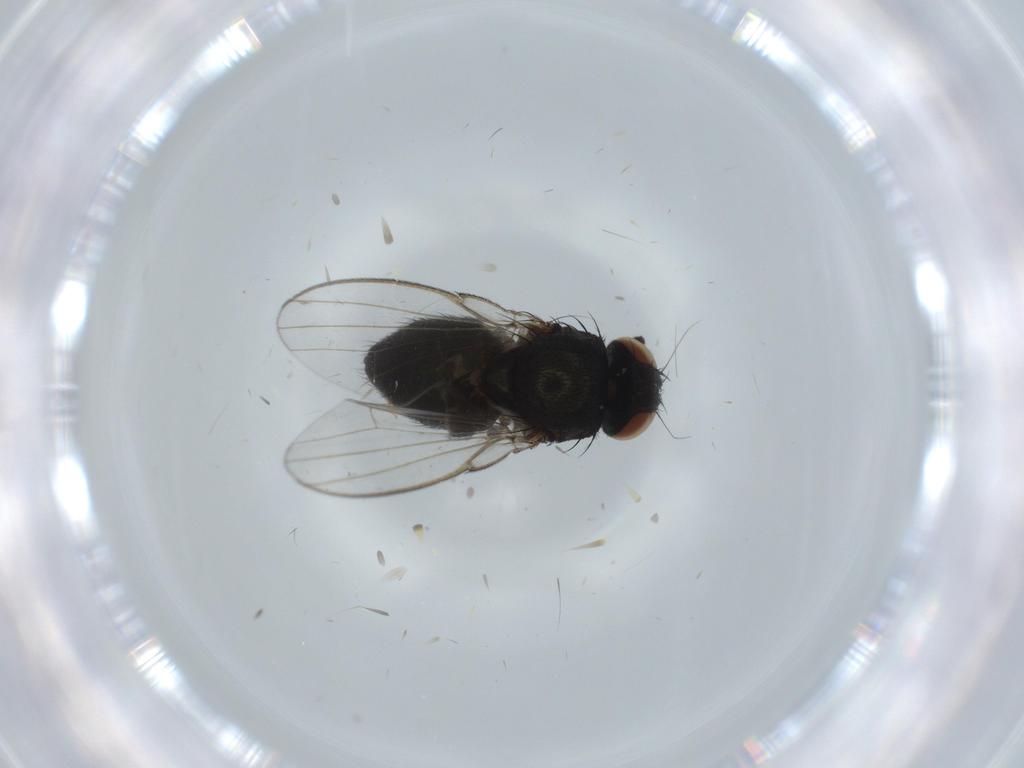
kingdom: Animalia
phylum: Arthropoda
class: Insecta
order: Diptera
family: Milichiidae
